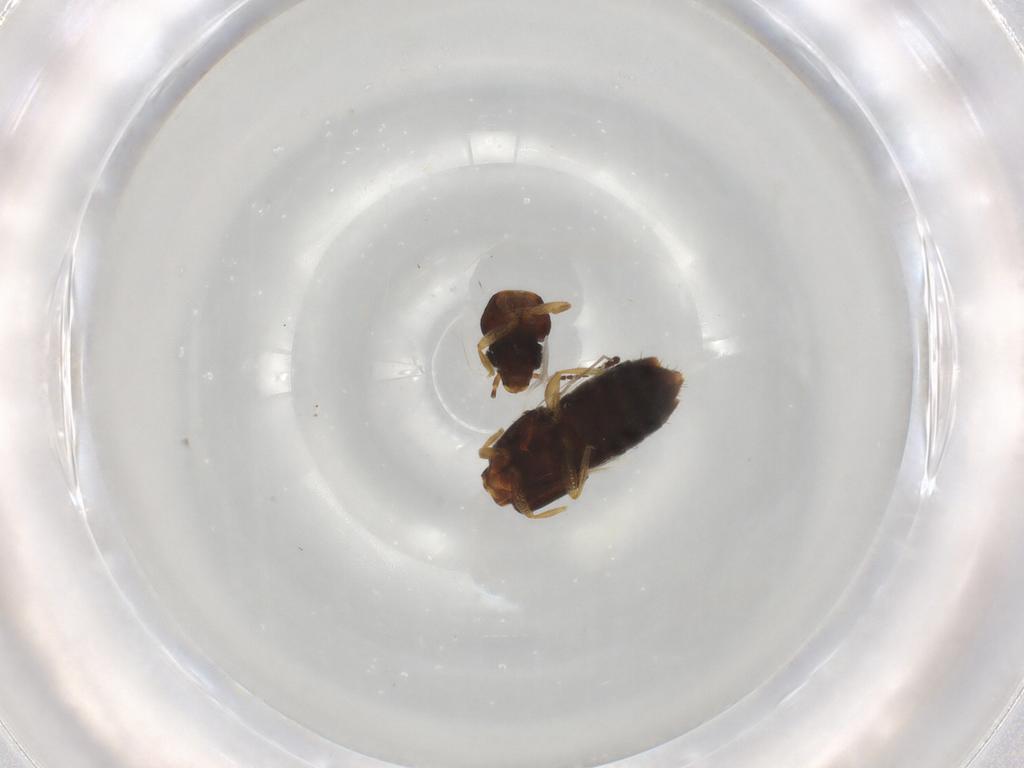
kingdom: Animalia
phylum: Arthropoda
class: Insecta
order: Coleoptera
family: Staphylinidae
